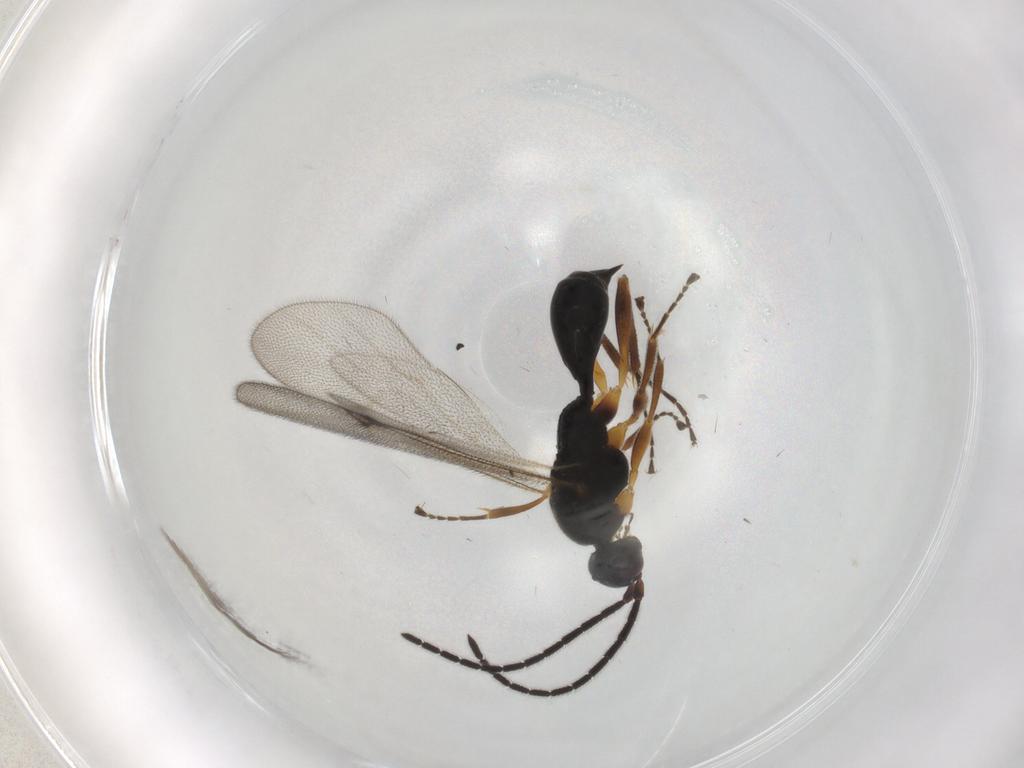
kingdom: Animalia
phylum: Arthropoda
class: Insecta
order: Hymenoptera
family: Proctotrupidae
